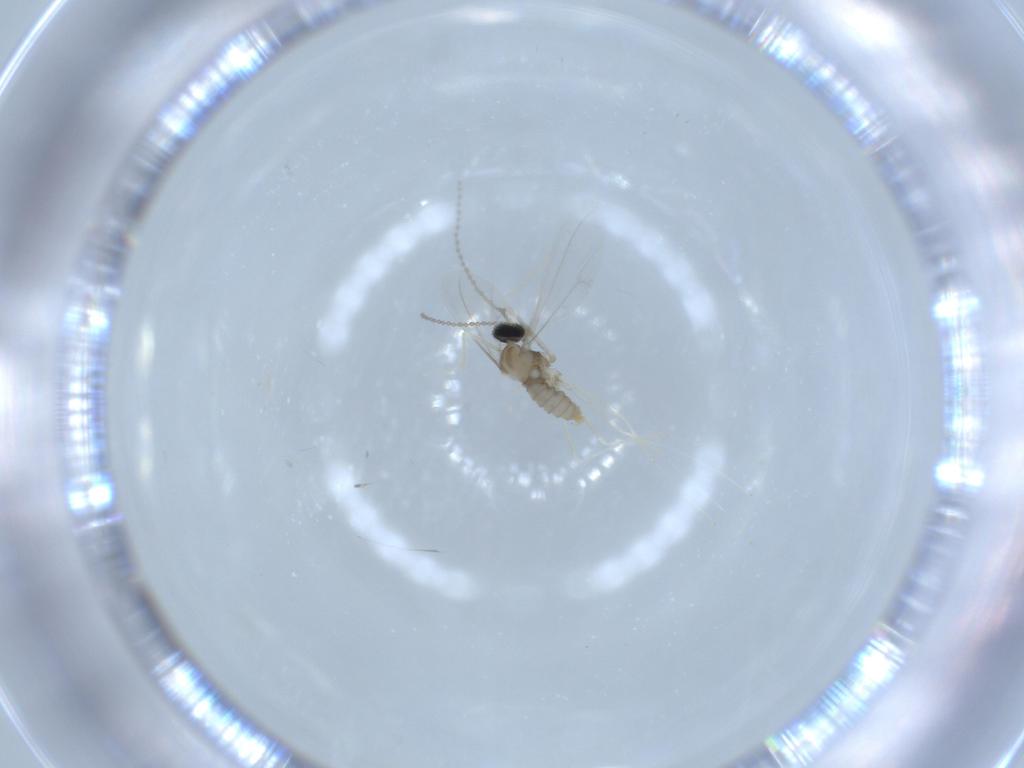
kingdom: Animalia
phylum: Arthropoda
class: Insecta
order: Diptera
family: Cecidomyiidae
